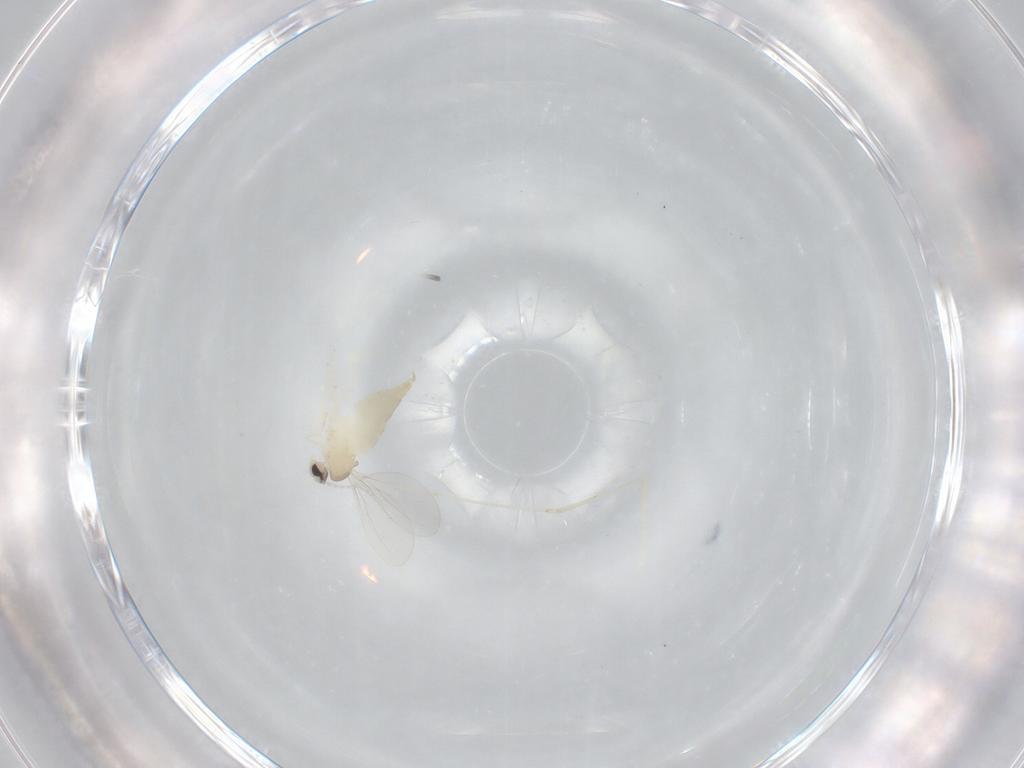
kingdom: Animalia
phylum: Arthropoda
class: Insecta
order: Diptera
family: Cecidomyiidae
